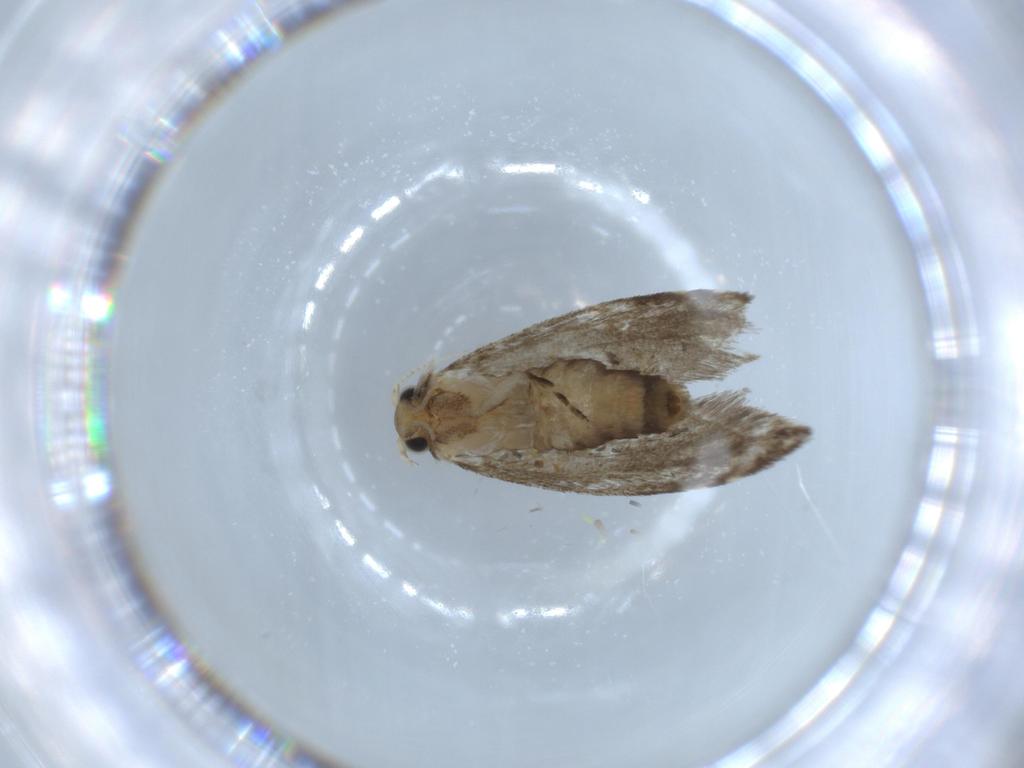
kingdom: Animalia
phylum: Arthropoda
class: Insecta
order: Lepidoptera
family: Tineidae
